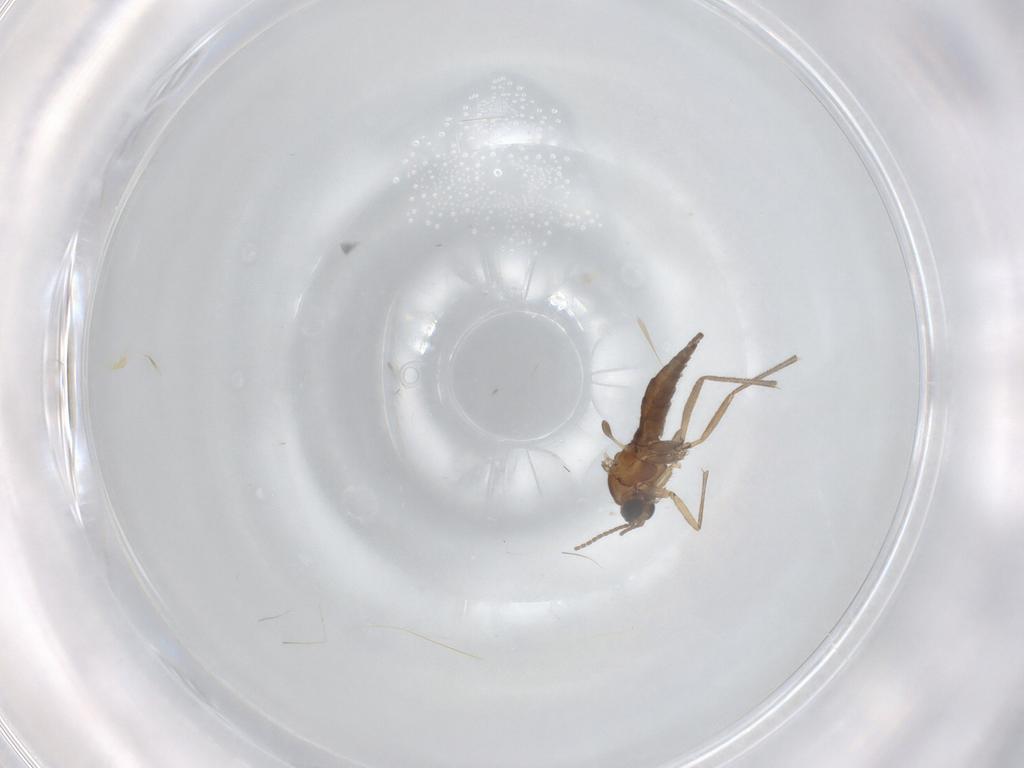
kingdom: Animalia
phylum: Arthropoda
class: Insecta
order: Diptera
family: Sciaridae
